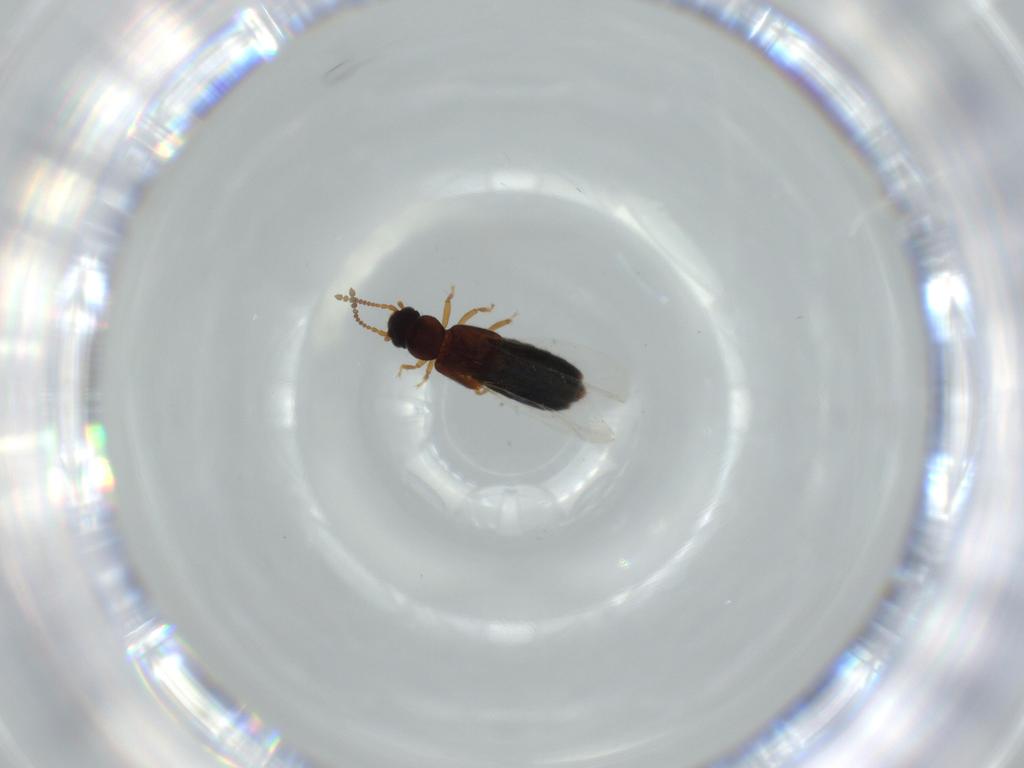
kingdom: Animalia
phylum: Arthropoda
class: Insecta
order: Coleoptera
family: Staphylinidae
